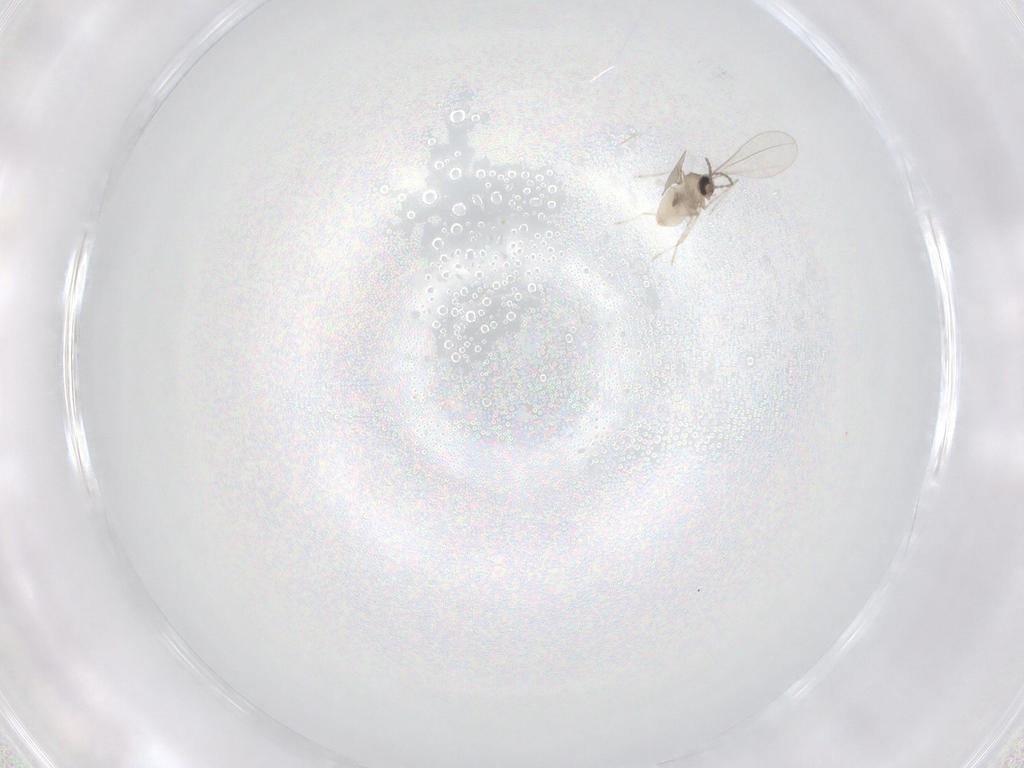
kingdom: Animalia
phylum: Arthropoda
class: Insecta
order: Diptera
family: Cecidomyiidae
